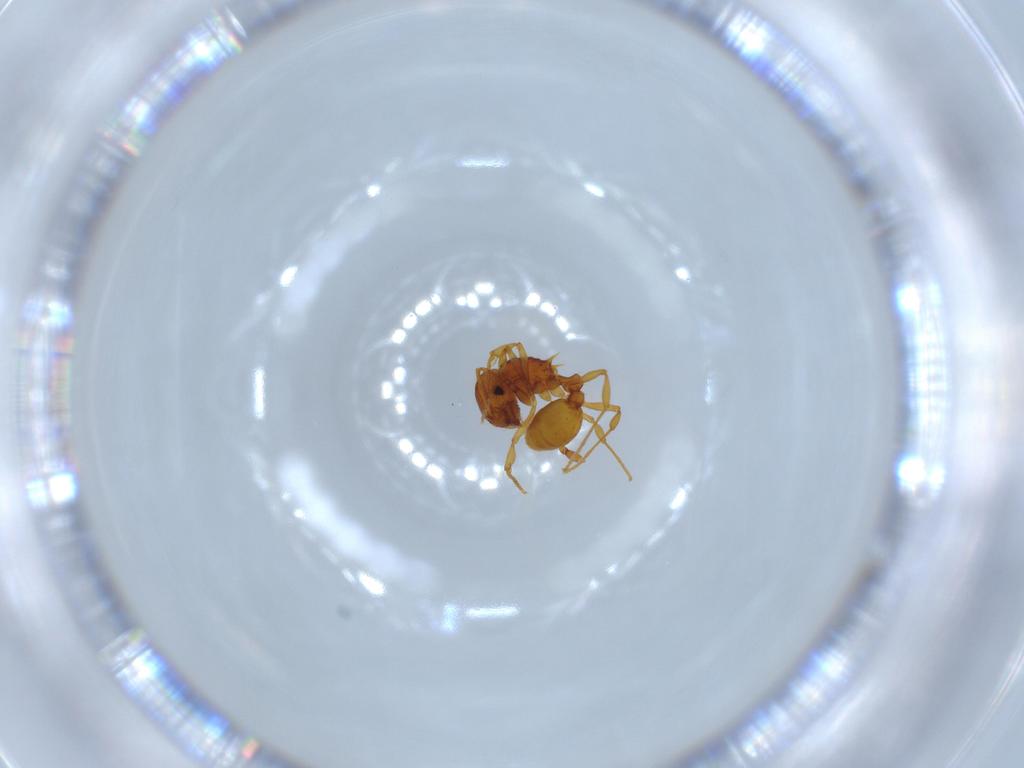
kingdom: Animalia
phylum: Arthropoda
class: Insecta
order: Hymenoptera
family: Formicidae
